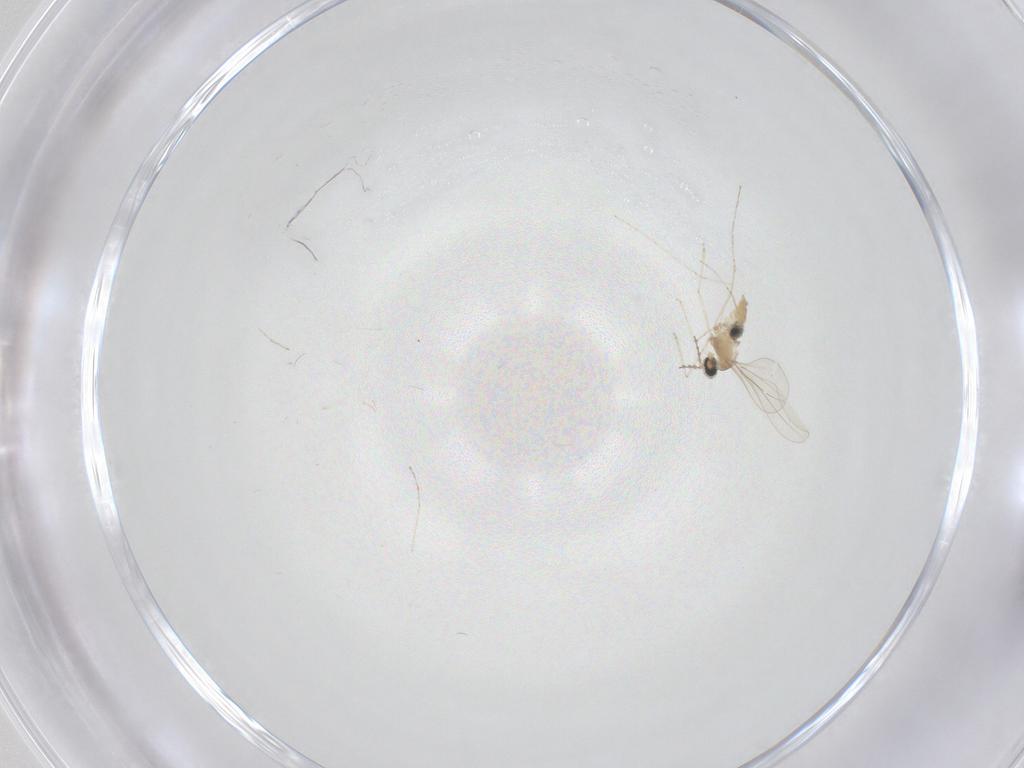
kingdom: Animalia
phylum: Arthropoda
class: Insecta
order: Diptera
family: Cecidomyiidae
